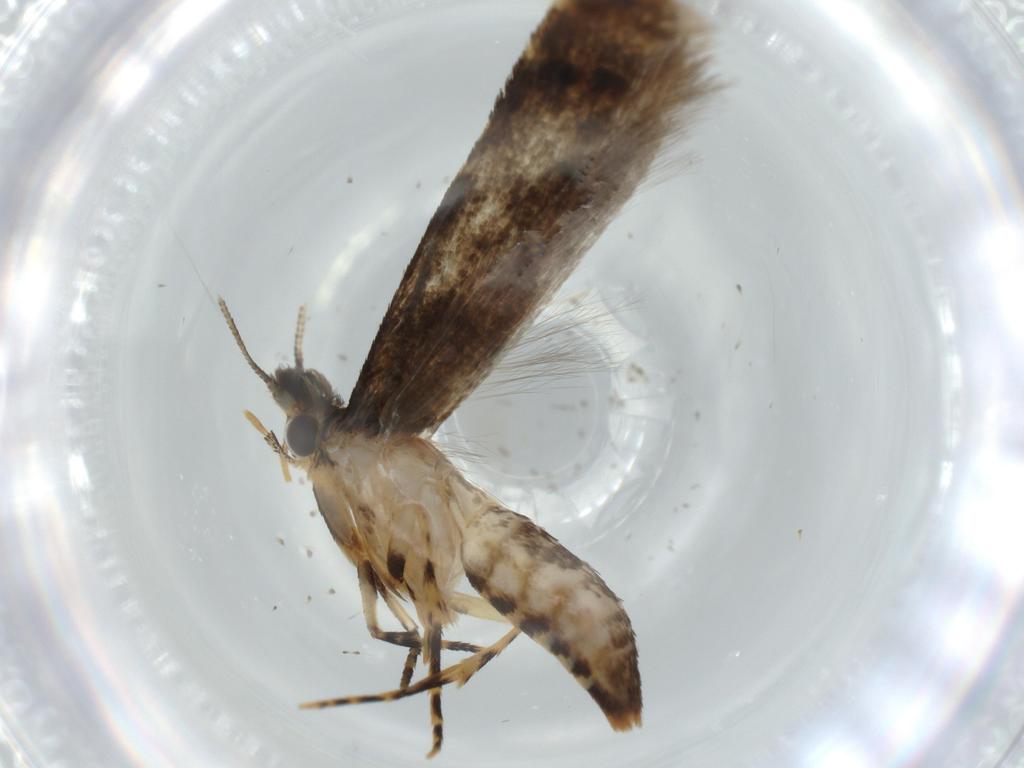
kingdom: Animalia
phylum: Arthropoda
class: Insecta
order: Lepidoptera
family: Tineidae
